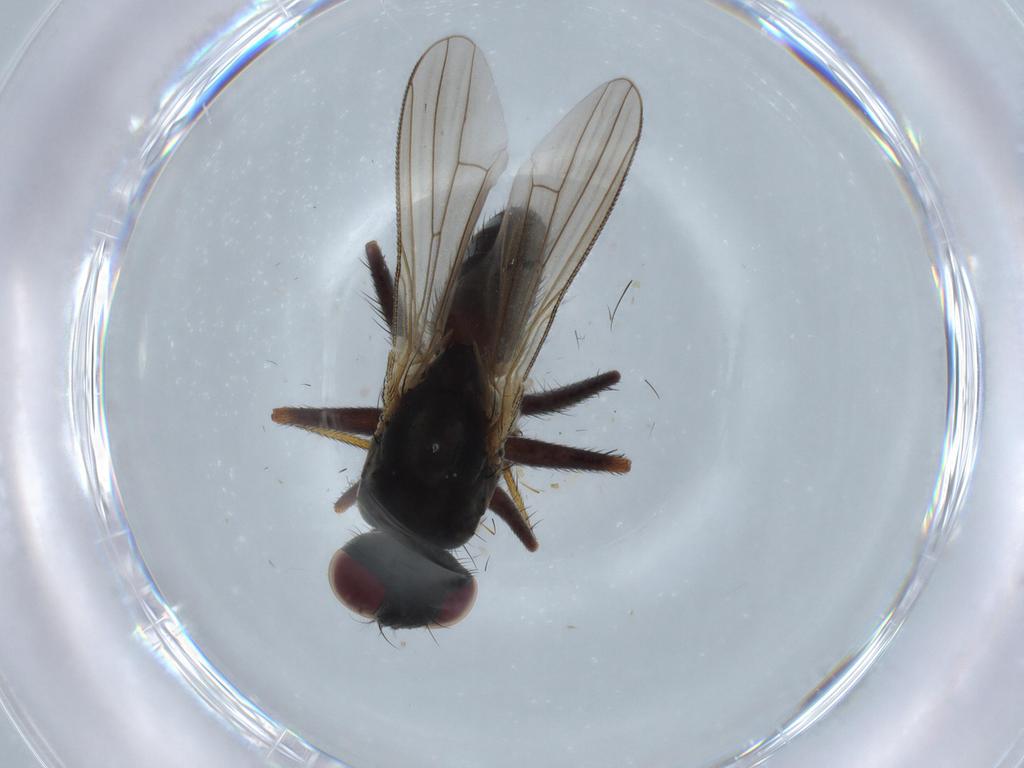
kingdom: Animalia
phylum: Arthropoda
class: Insecta
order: Diptera
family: Muscidae
